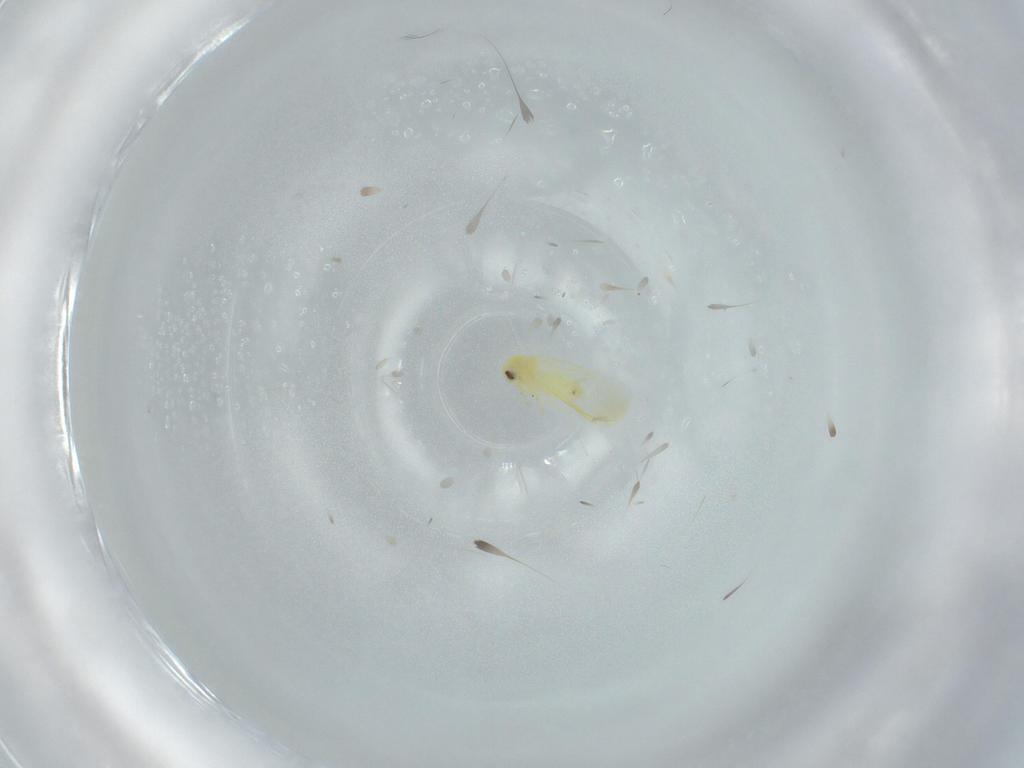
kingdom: Animalia
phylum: Arthropoda
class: Insecta
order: Hemiptera
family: Aleyrodidae
